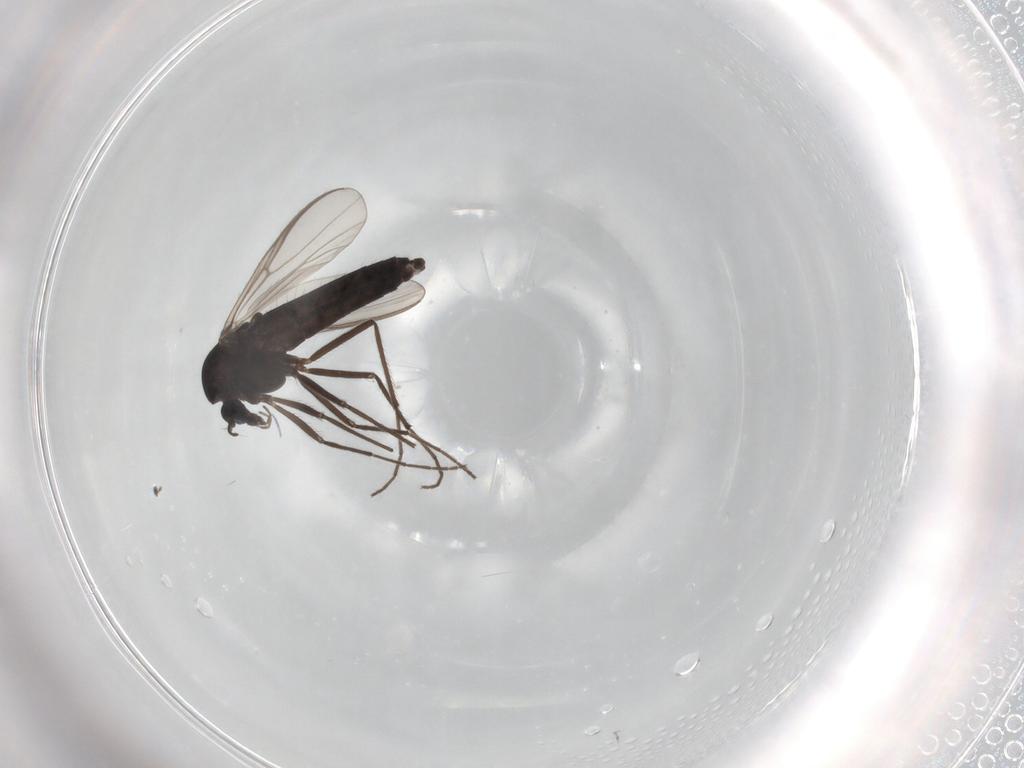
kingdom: Animalia
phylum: Arthropoda
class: Insecta
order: Diptera
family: Chironomidae
